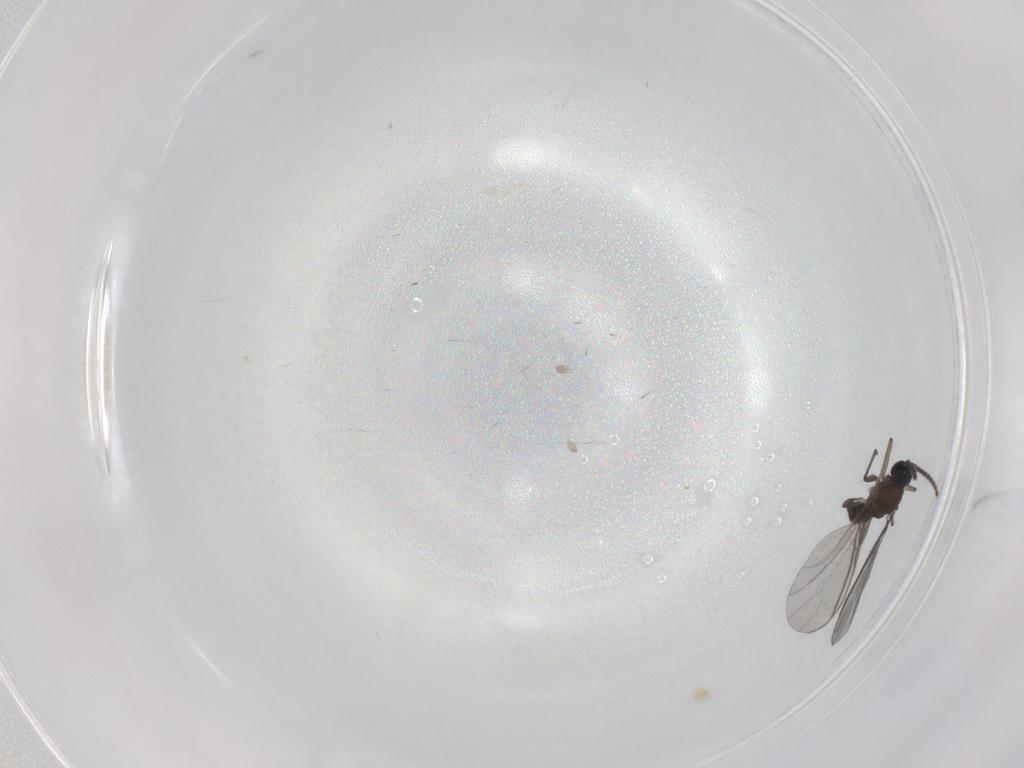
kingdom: Animalia
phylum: Arthropoda
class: Insecta
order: Diptera
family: Sciaridae
